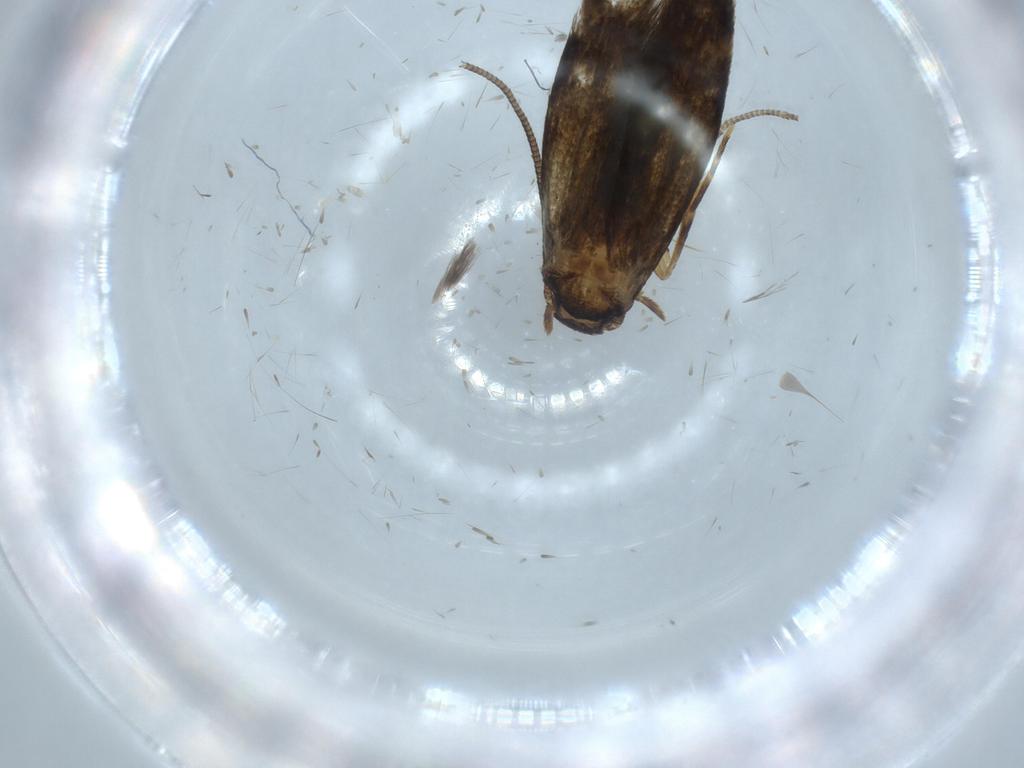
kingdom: Animalia
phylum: Arthropoda
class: Insecta
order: Lepidoptera
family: Tineidae
